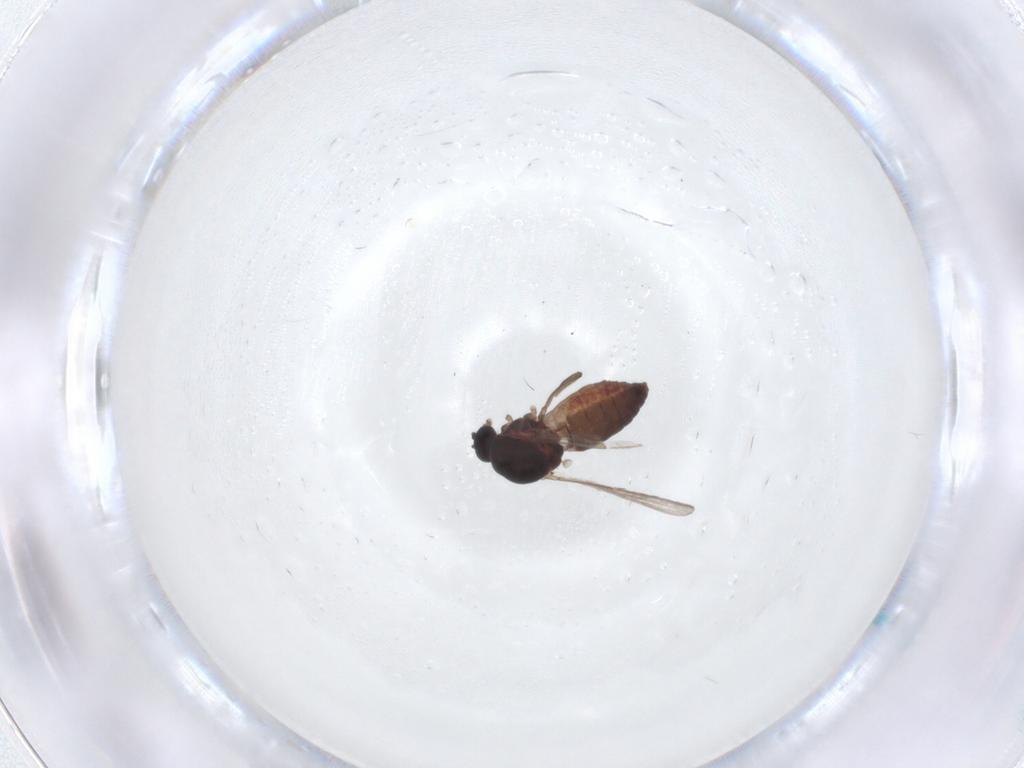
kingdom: Animalia
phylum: Arthropoda
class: Insecta
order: Diptera
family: Ceratopogonidae
